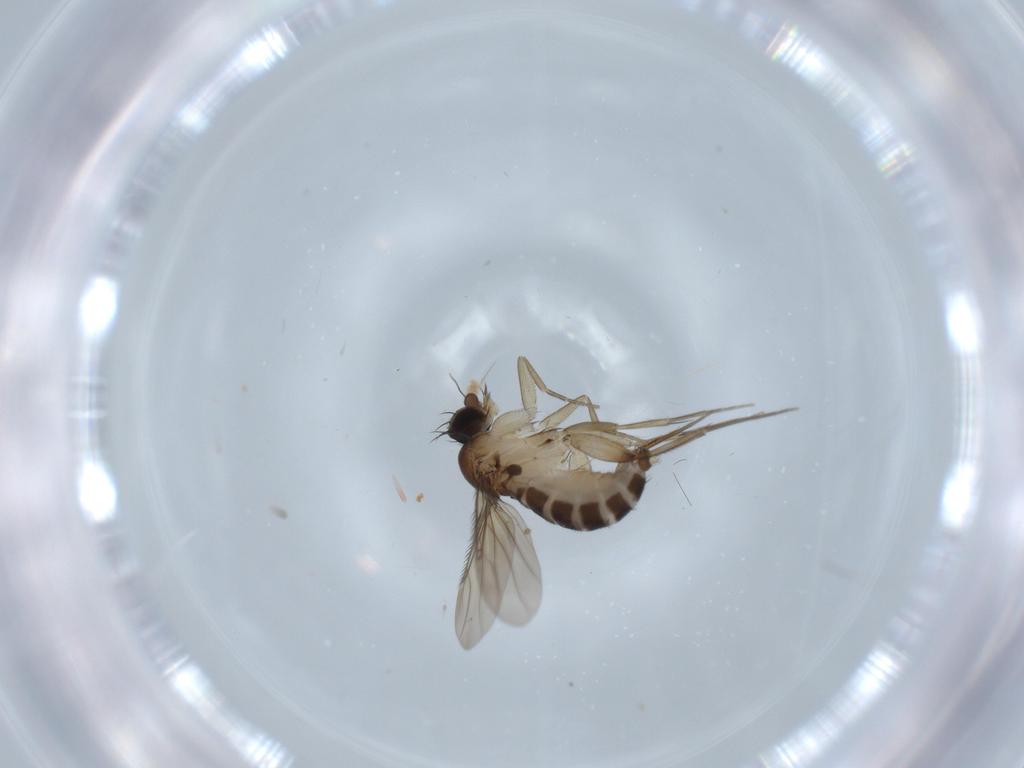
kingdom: Animalia
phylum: Arthropoda
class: Insecta
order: Diptera
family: Phoridae
